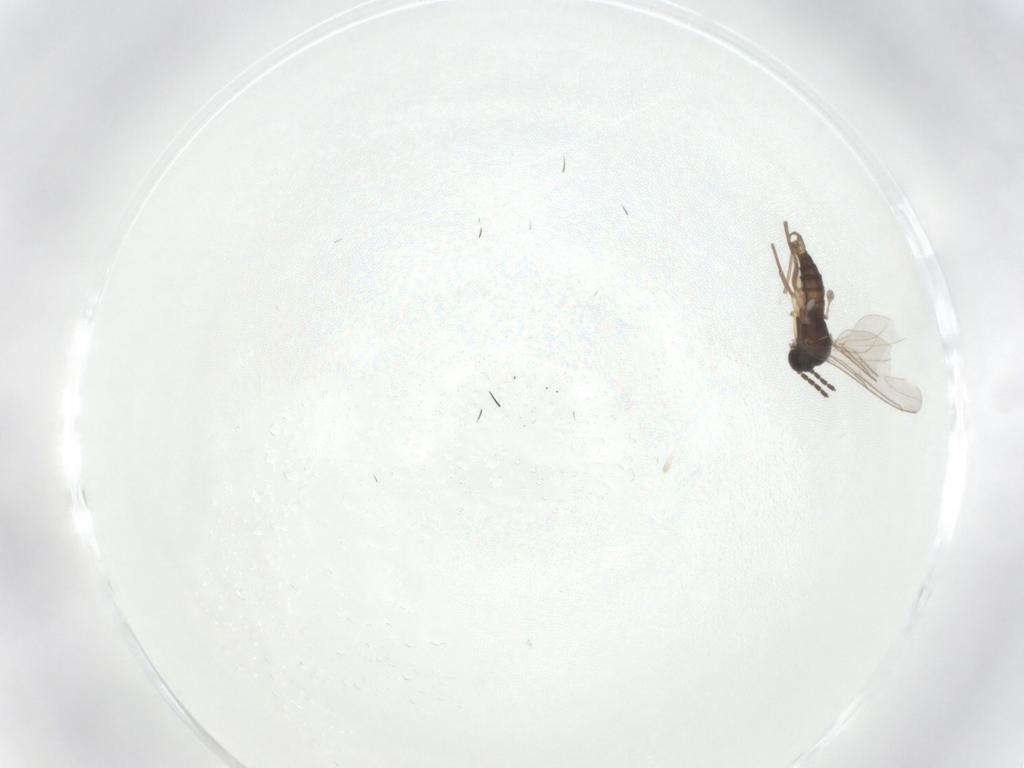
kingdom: Animalia
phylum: Arthropoda
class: Insecta
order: Diptera
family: Sciaridae
